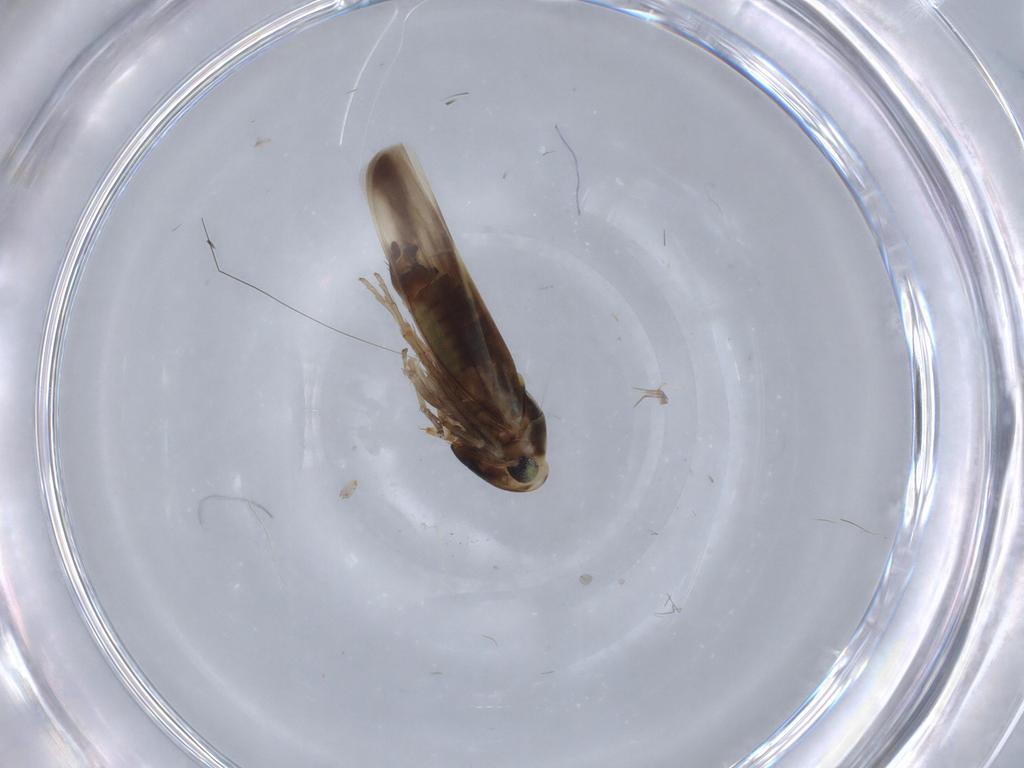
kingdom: Animalia
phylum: Arthropoda
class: Insecta
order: Hemiptera
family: Cicadellidae
